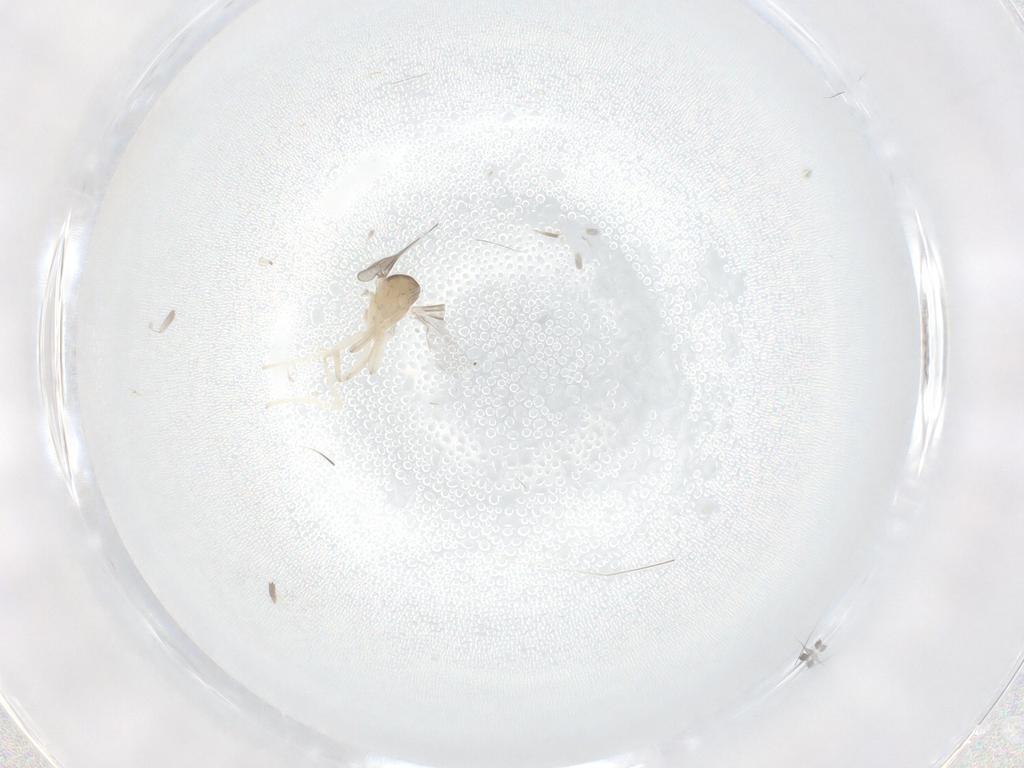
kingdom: Animalia
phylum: Arthropoda
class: Insecta
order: Diptera
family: Cecidomyiidae
